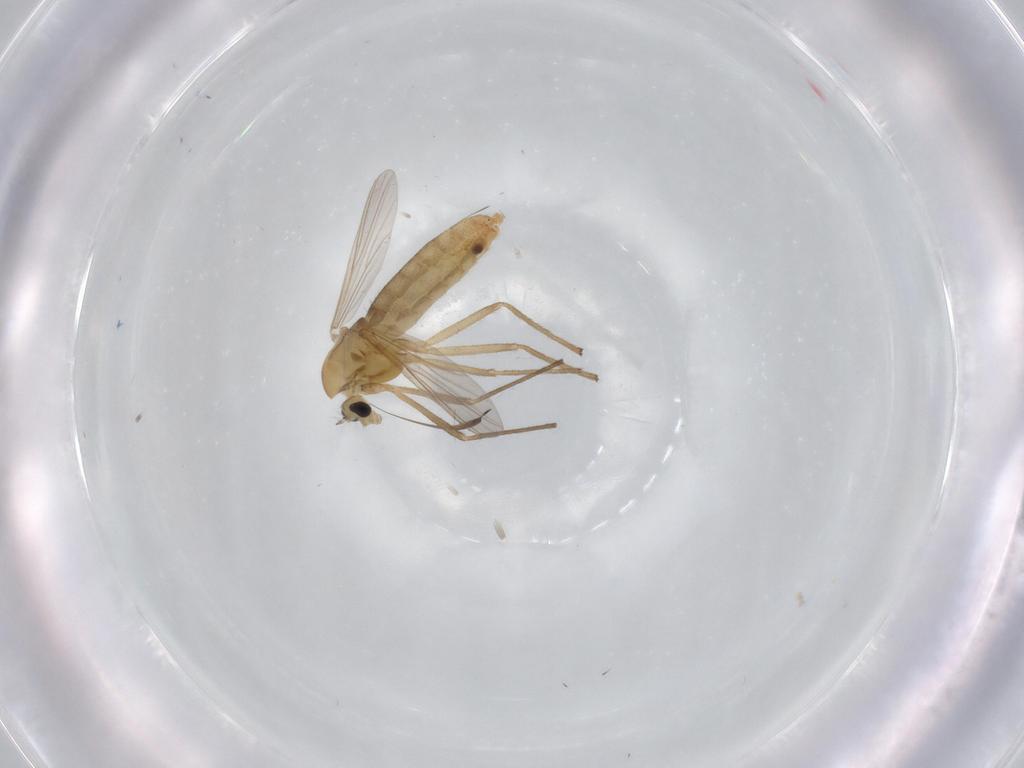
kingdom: Animalia
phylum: Arthropoda
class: Insecta
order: Diptera
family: Chironomidae
